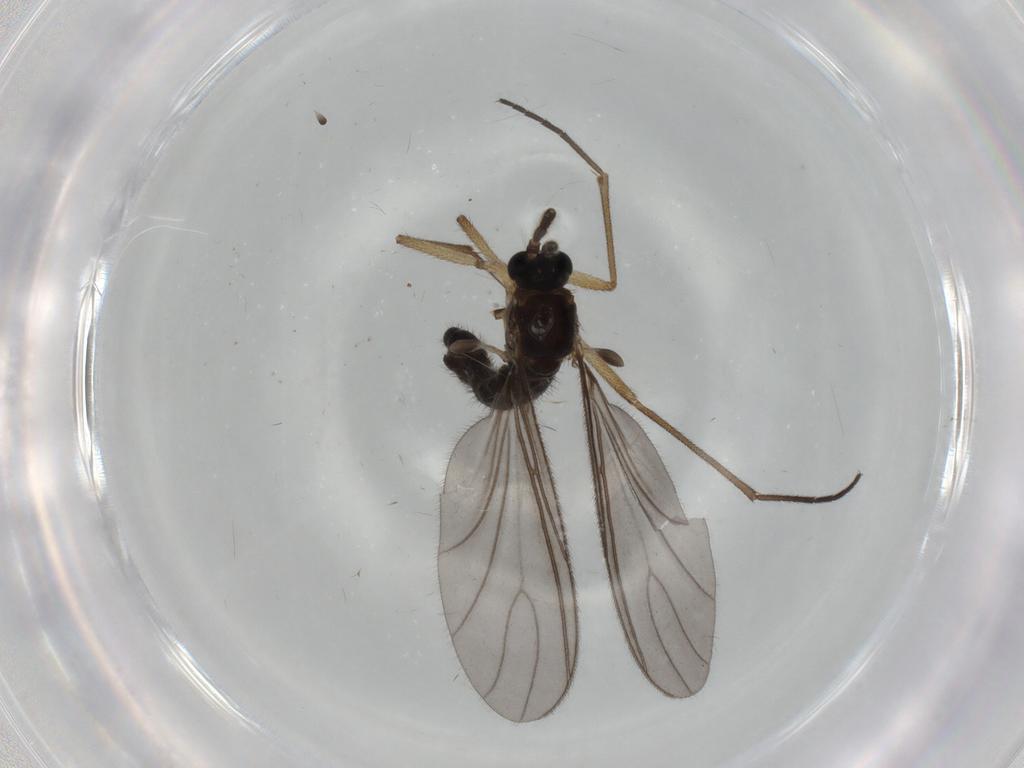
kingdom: Animalia
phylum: Arthropoda
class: Insecta
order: Diptera
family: Sciaridae
